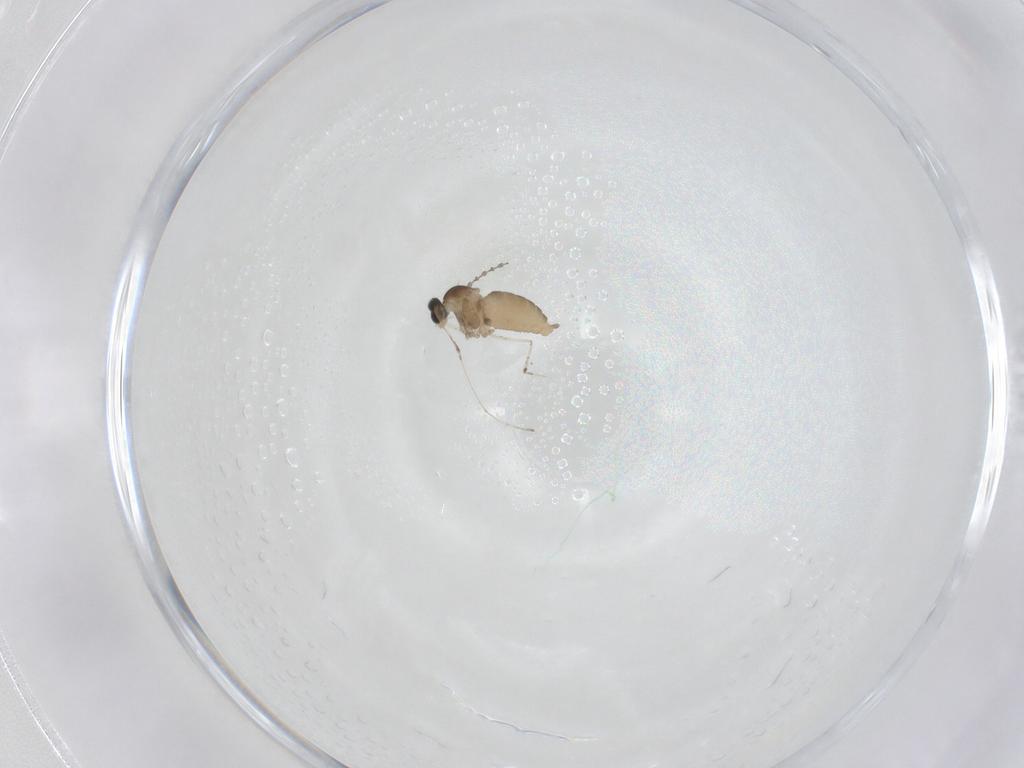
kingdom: Animalia
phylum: Arthropoda
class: Insecta
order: Diptera
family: Cecidomyiidae
